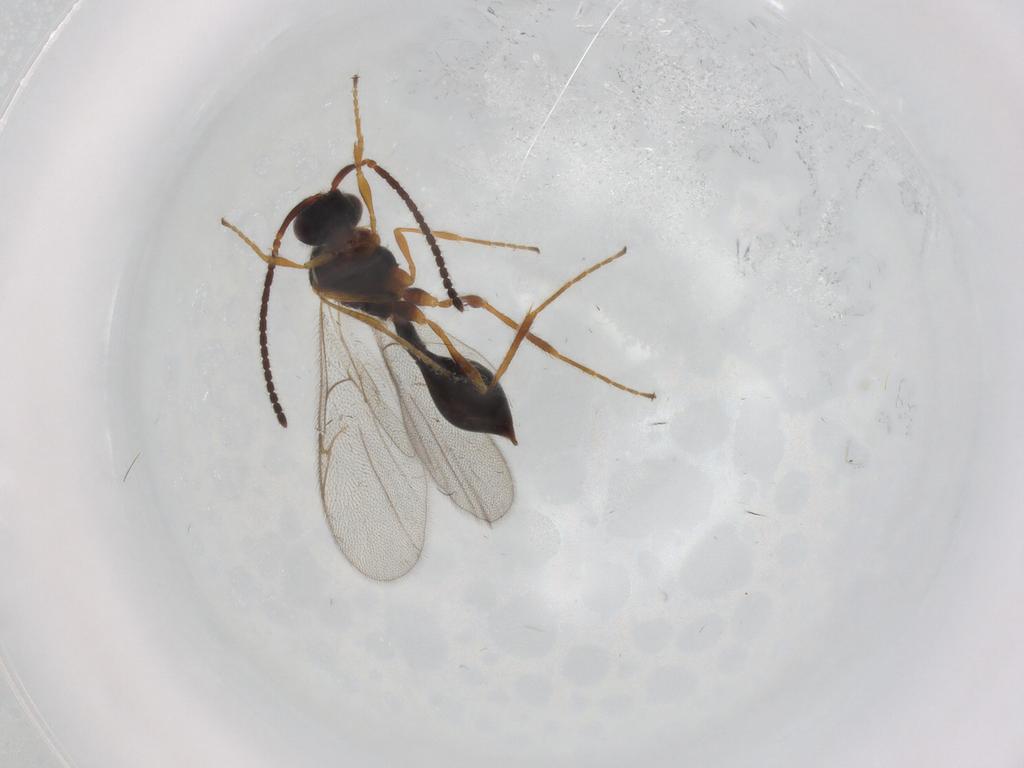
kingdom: Animalia
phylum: Arthropoda
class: Insecta
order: Hymenoptera
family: Diapriidae
